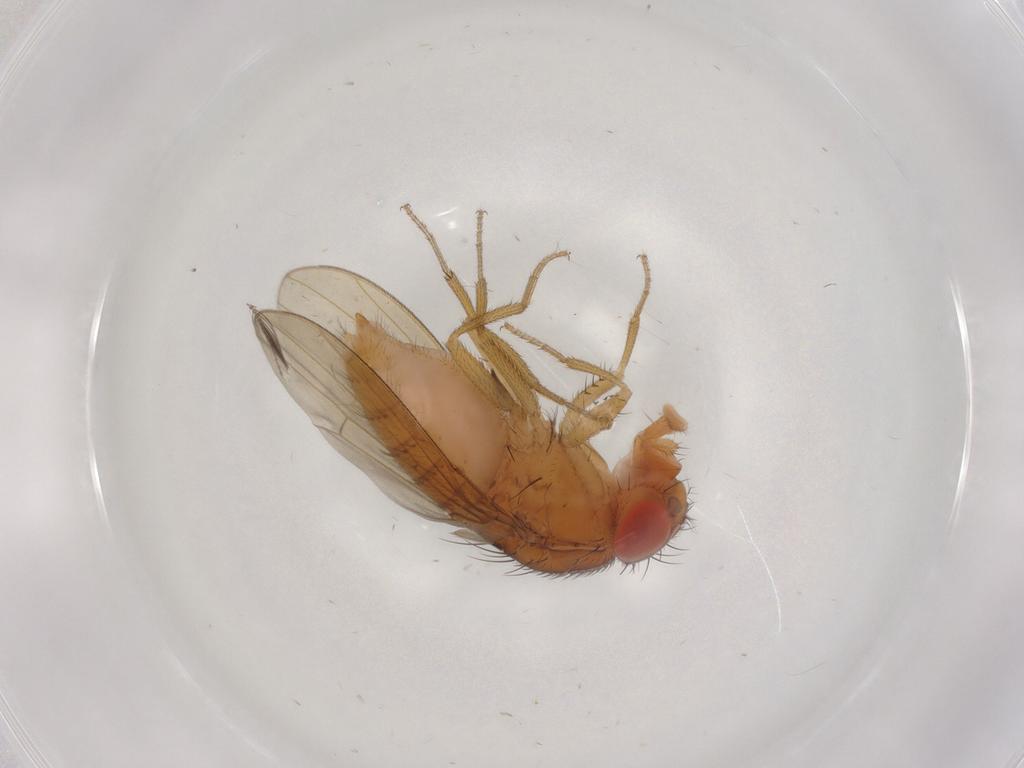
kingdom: Animalia
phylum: Arthropoda
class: Insecta
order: Diptera
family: Drosophilidae
